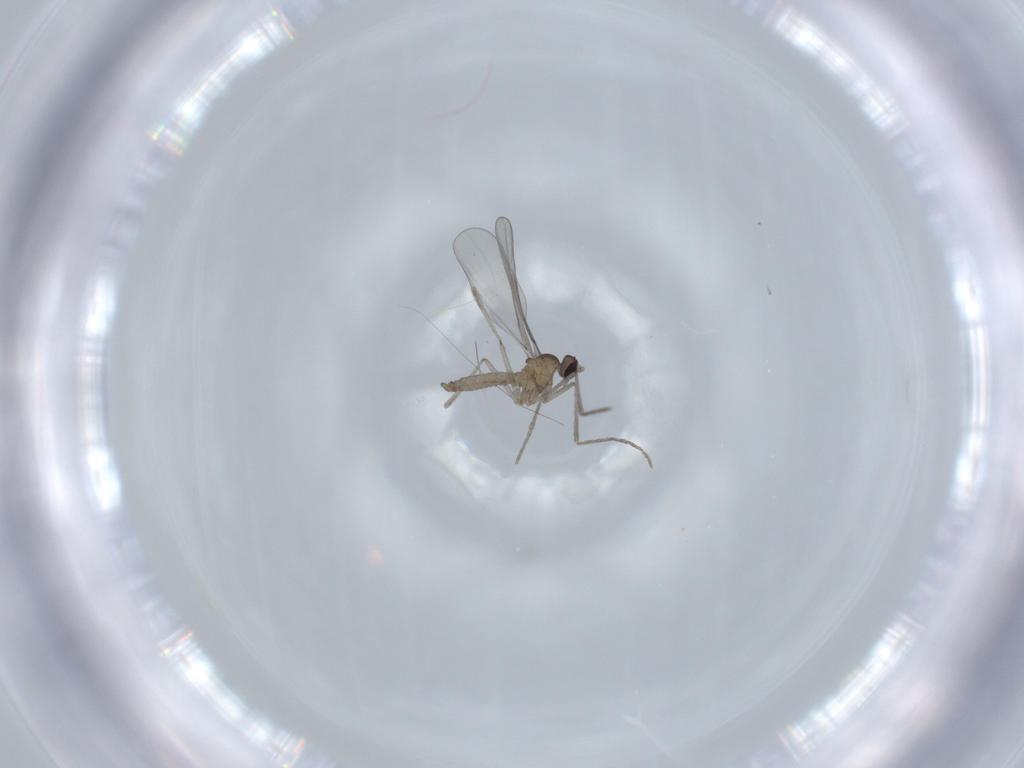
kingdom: Animalia
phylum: Arthropoda
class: Insecta
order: Diptera
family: Cecidomyiidae
